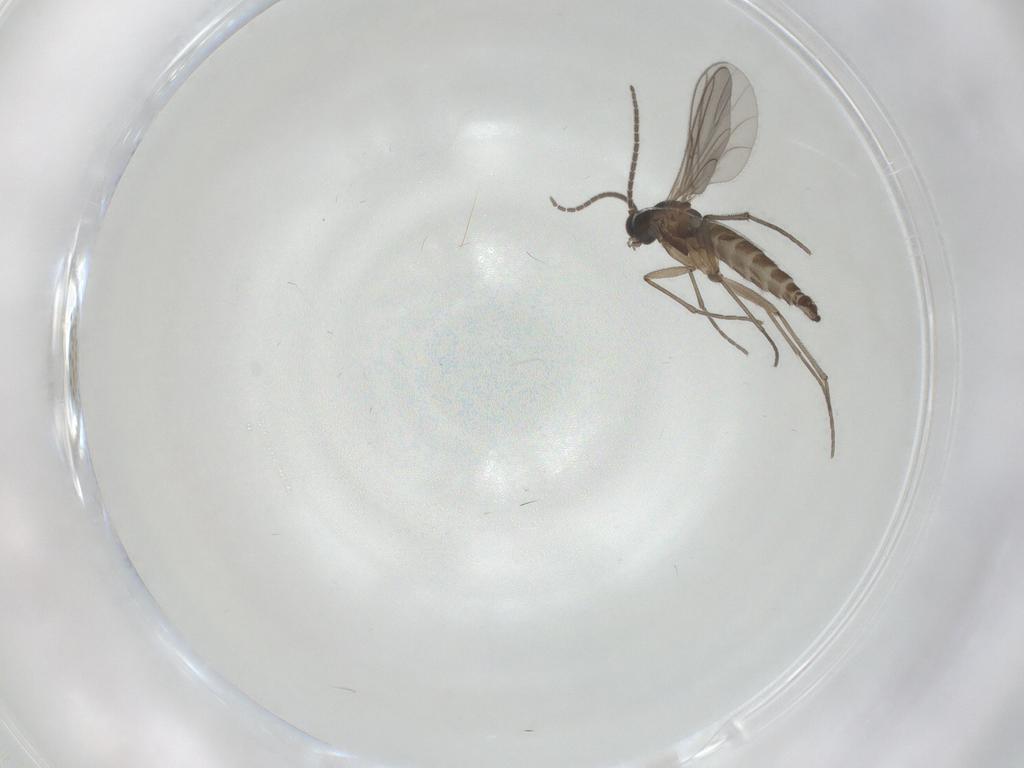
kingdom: Animalia
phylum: Arthropoda
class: Insecta
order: Diptera
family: Sciaridae
